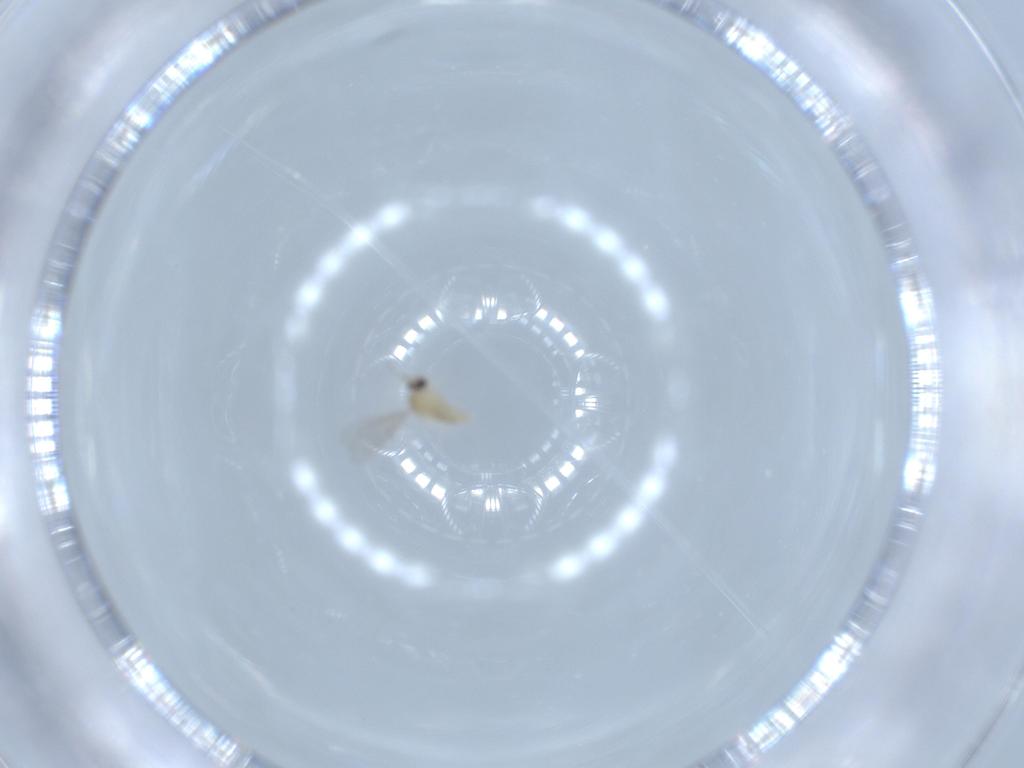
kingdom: Animalia
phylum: Arthropoda
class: Insecta
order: Diptera
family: Cecidomyiidae
